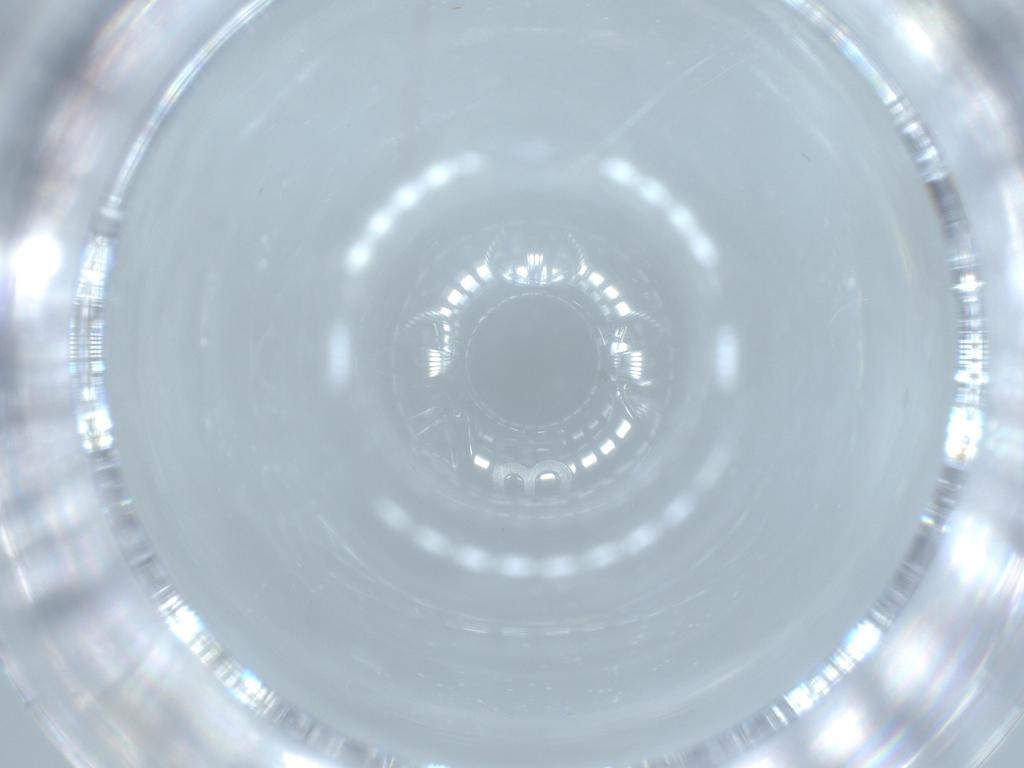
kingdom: Animalia
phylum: Arthropoda
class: Insecta
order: Hymenoptera
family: Trichogrammatidae
